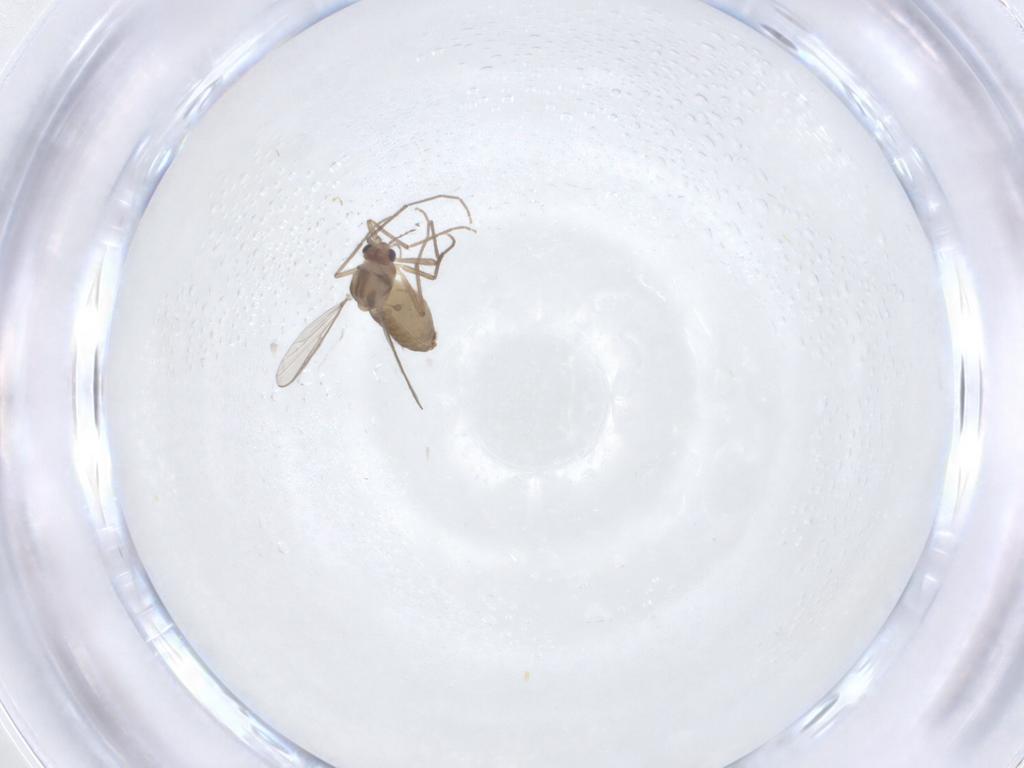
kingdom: Animalia
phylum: Arthropoda
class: Insecta
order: Diptera
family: Chironomidae
